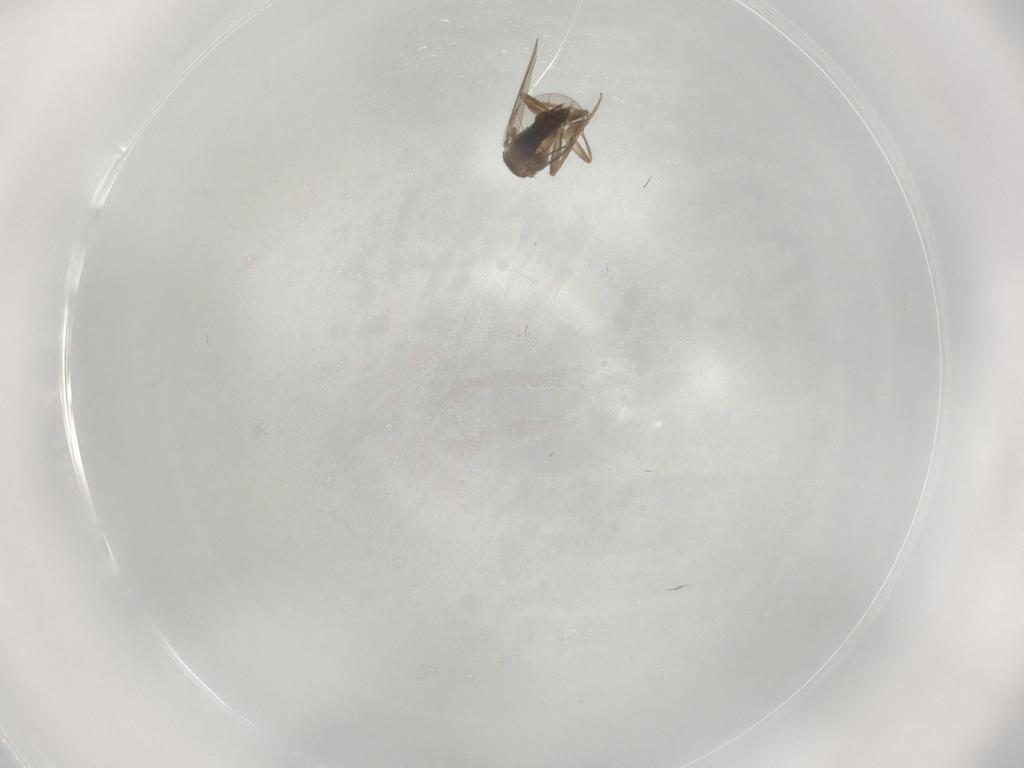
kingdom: Animalia
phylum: Arthropoda
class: Insecta
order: Diptera
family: Phoridae
